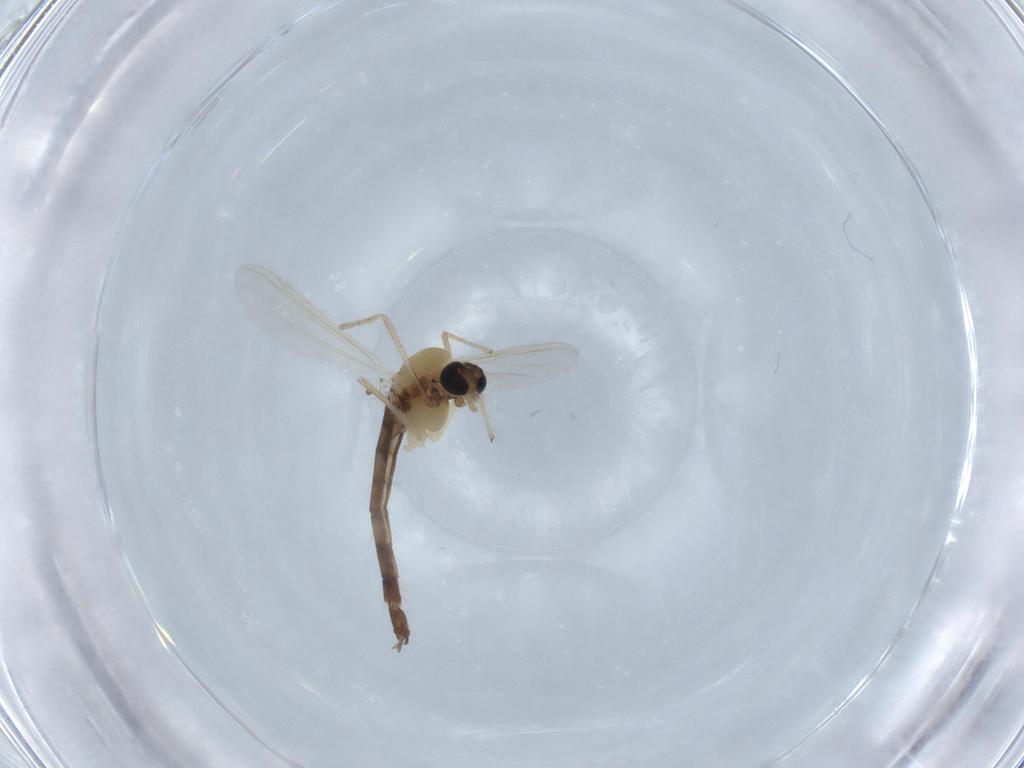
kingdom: Animalia
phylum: Arthropoda
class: Insecta
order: Diptera
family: Chironomidae
